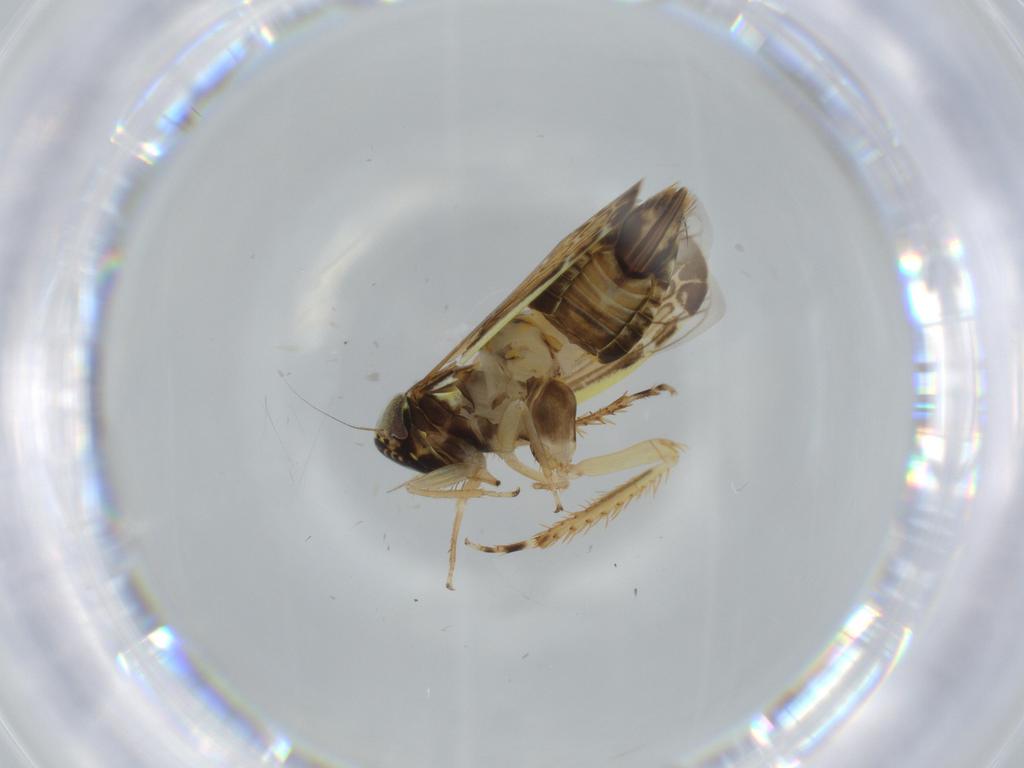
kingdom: Animalia
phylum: Arthropoda
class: Insecta
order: Hemiptera
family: Cicadellidae
